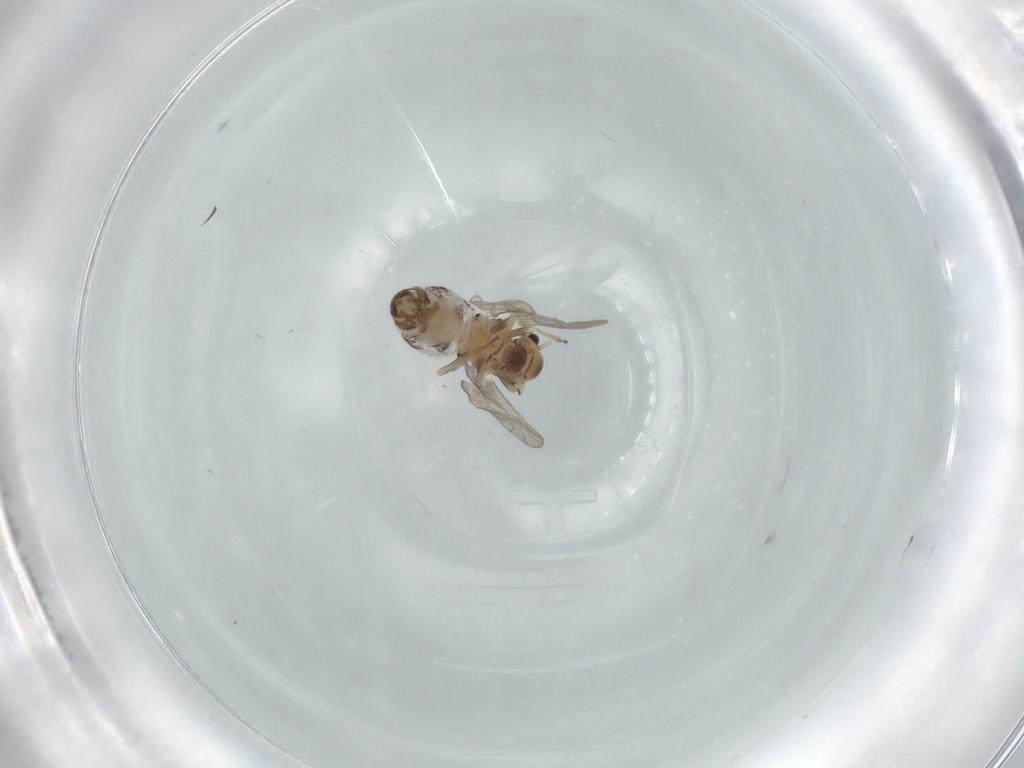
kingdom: Animalia
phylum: Arthropoda
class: Insecta
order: Psocodea
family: Ectopsocidae
